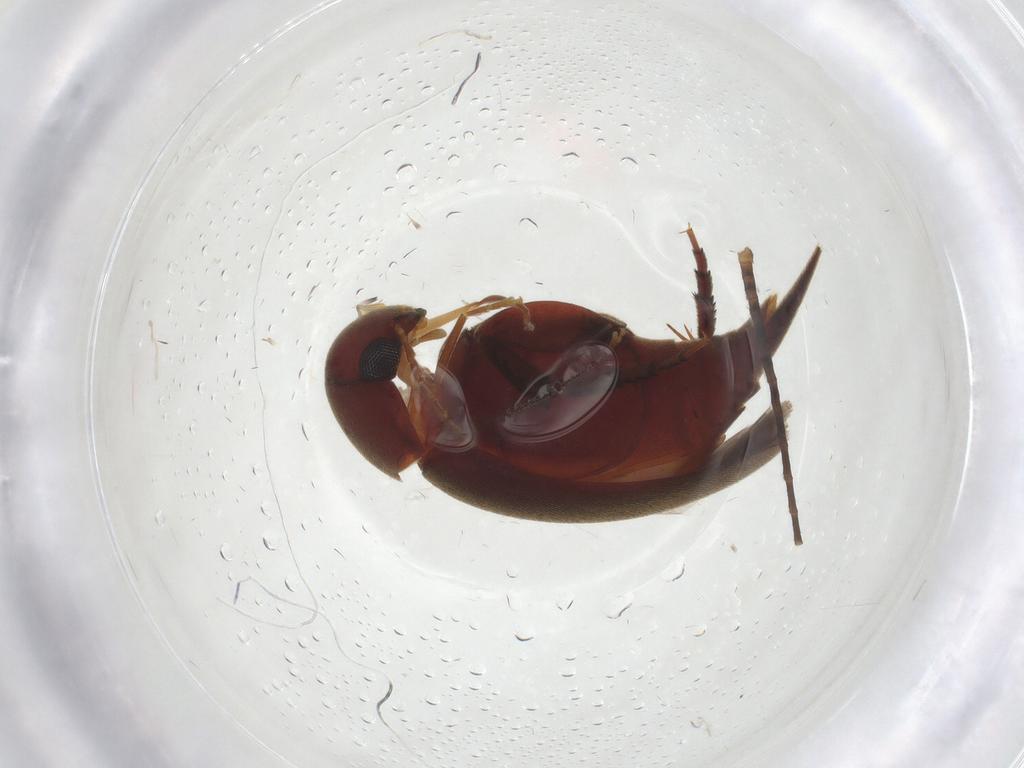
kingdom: Animalia
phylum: Arthropoda
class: Insecta
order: Coleoptera
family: Mordellidae
